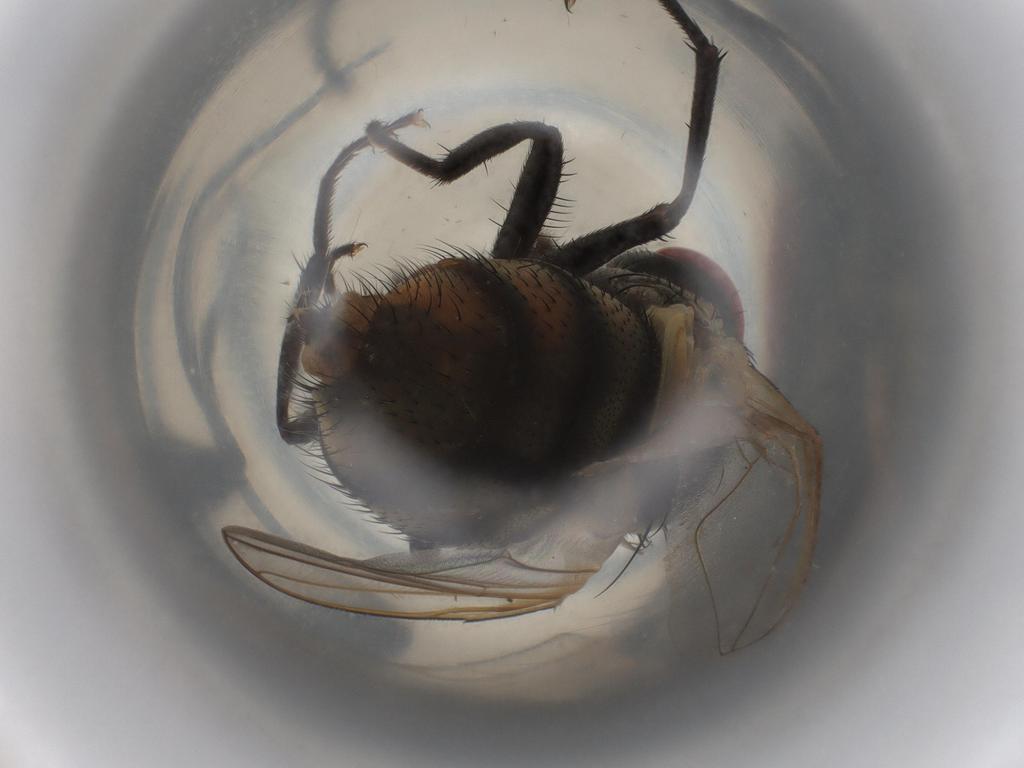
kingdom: Animalia
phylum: Arthropoda
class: Insecta
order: Diptera
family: Muscidae
